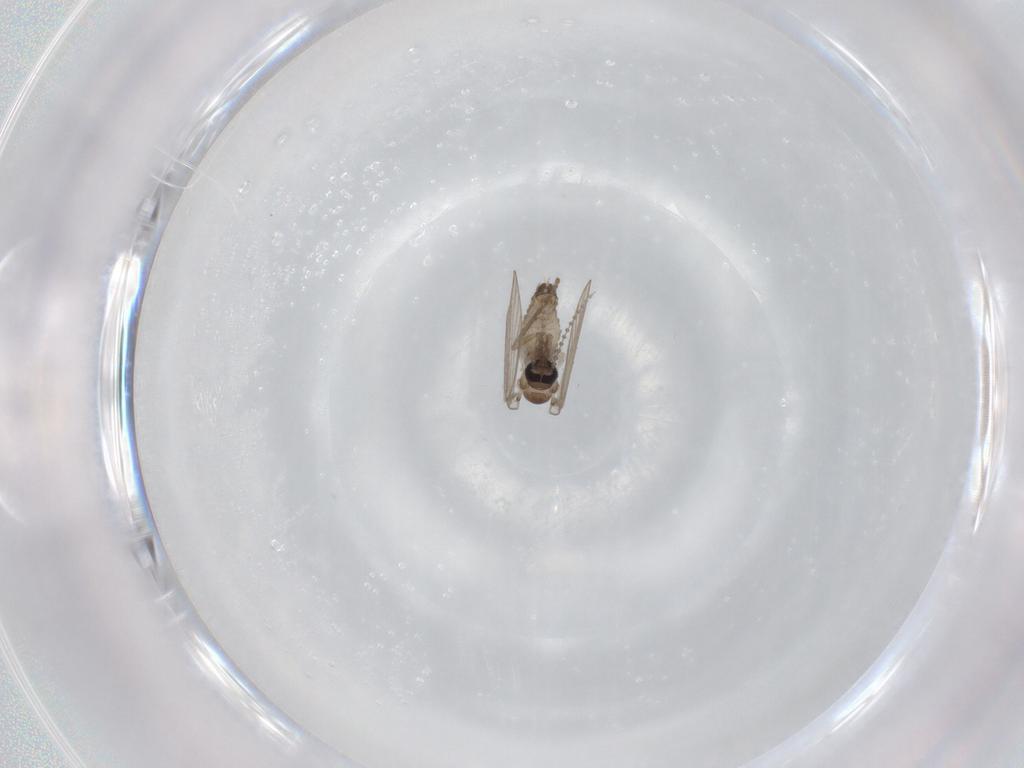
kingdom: Animalia
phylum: Arthropoda
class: Insecta
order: Diptera
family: Psychodidae
